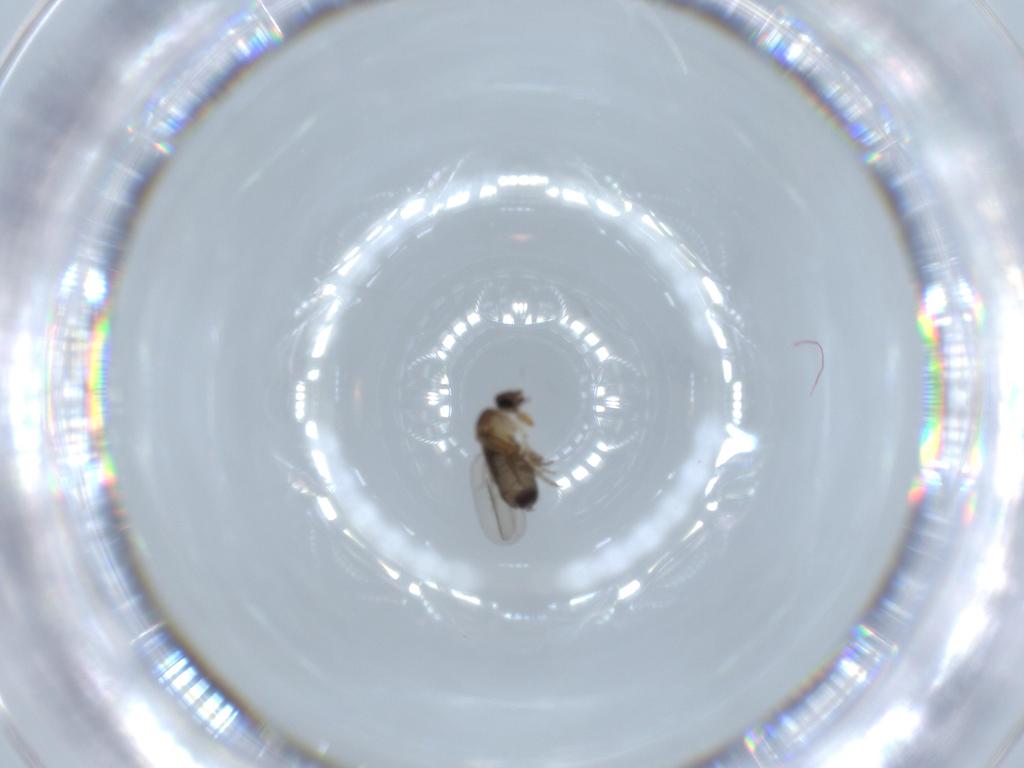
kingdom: Animalia
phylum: Arthropoda
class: Insecta
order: Diptera
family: Phoridae
